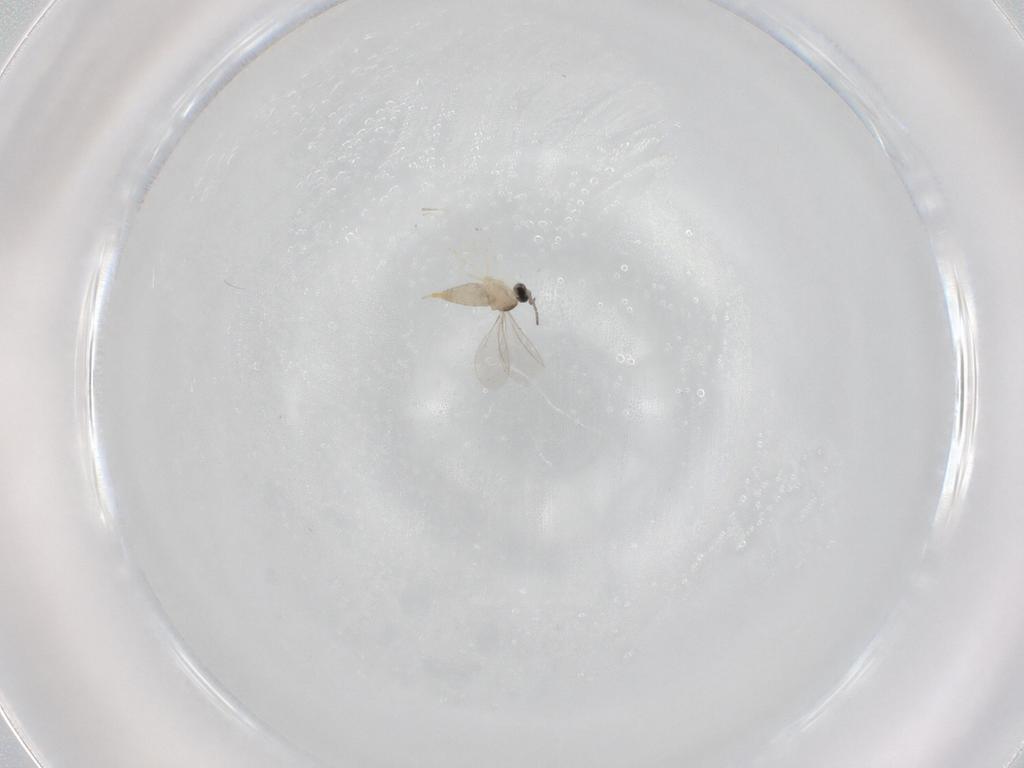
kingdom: Animalia
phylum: Arthropoda
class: Insecta
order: Diptera
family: Cecidomyiidae
